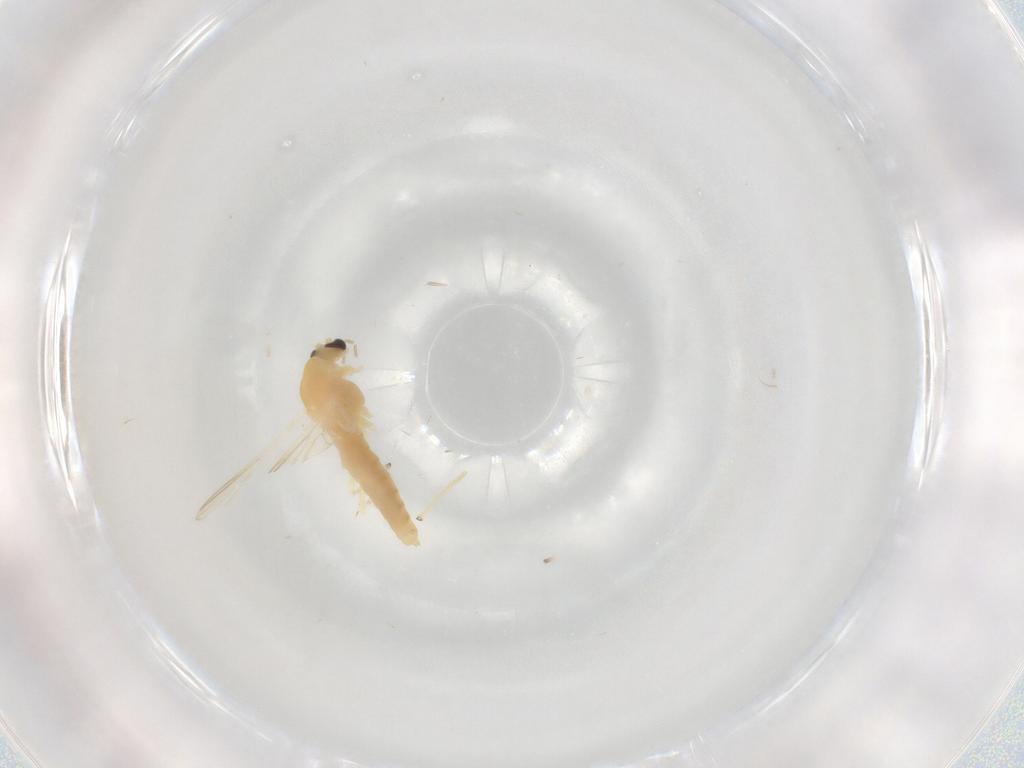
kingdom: Animalia
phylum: Arthropoda
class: Insecta
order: Diptera
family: Chironomidae
